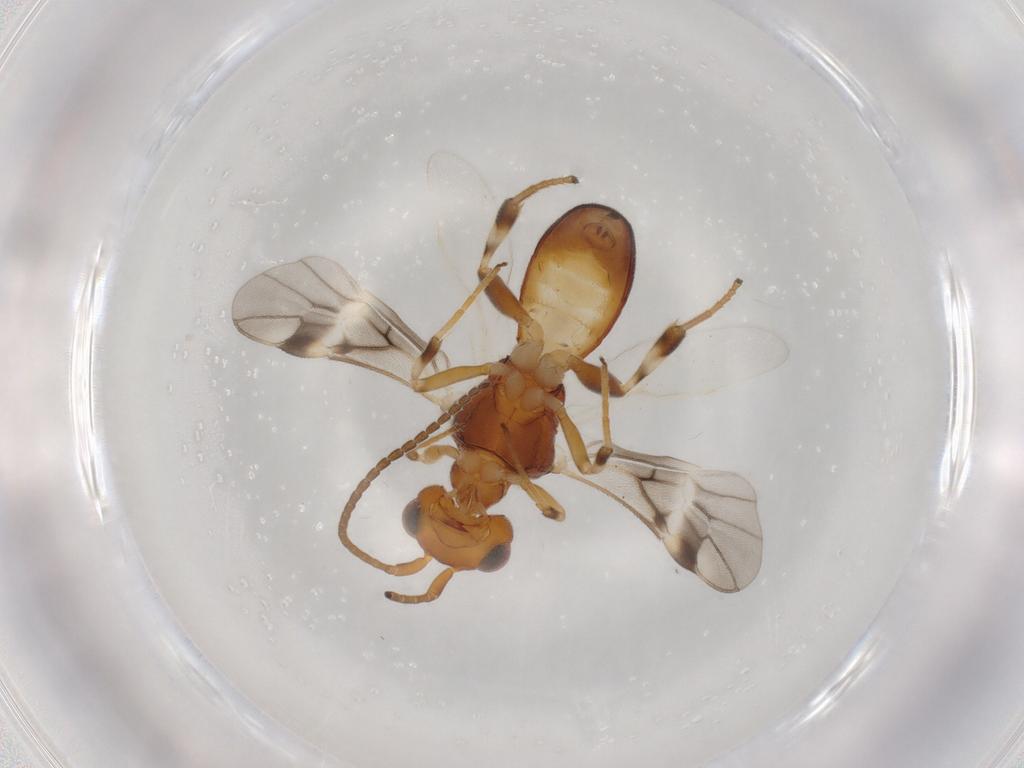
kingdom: Animalia
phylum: Arthropoda
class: Insecta
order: Hymenoptera
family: Braconidae
